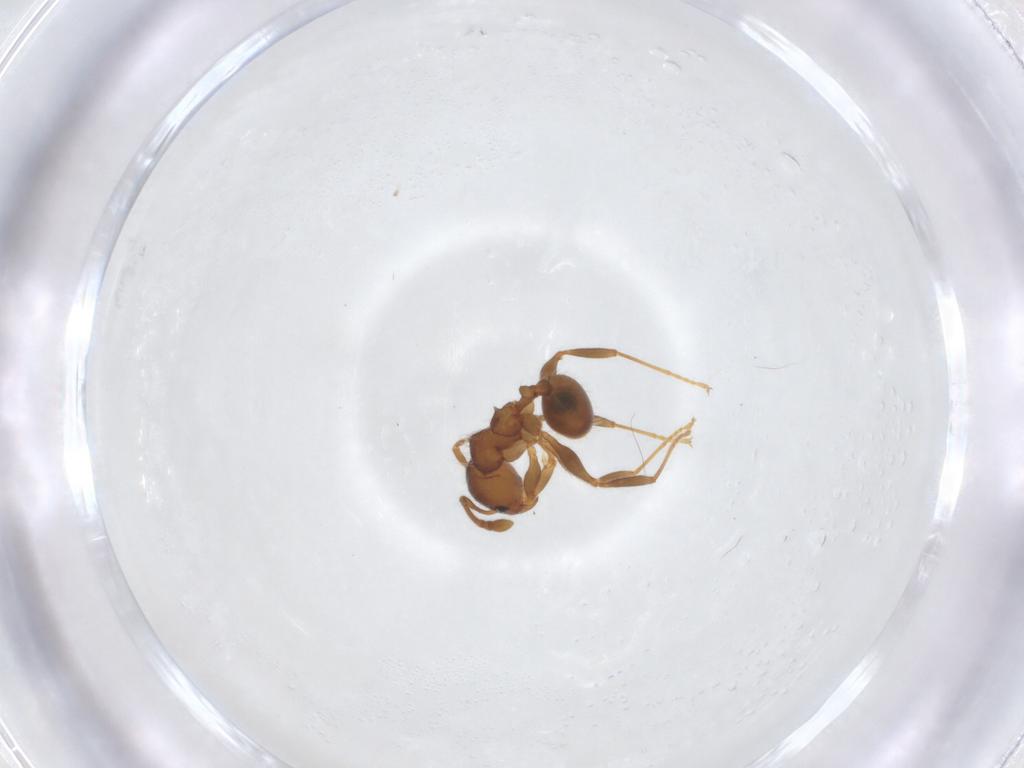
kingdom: Animalia
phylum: Arthropoda
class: Insecta
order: Hymenoptera
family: Formicidae
